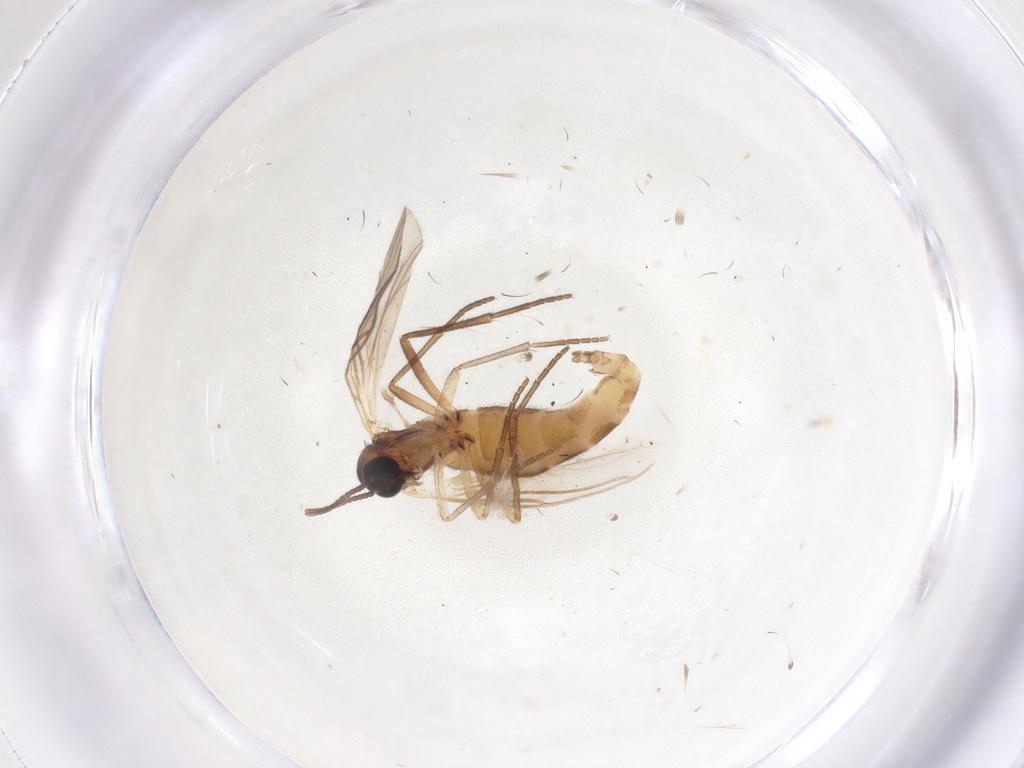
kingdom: Animalia
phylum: Arthropoda
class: Insecta
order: Diptera
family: Sciaridae
